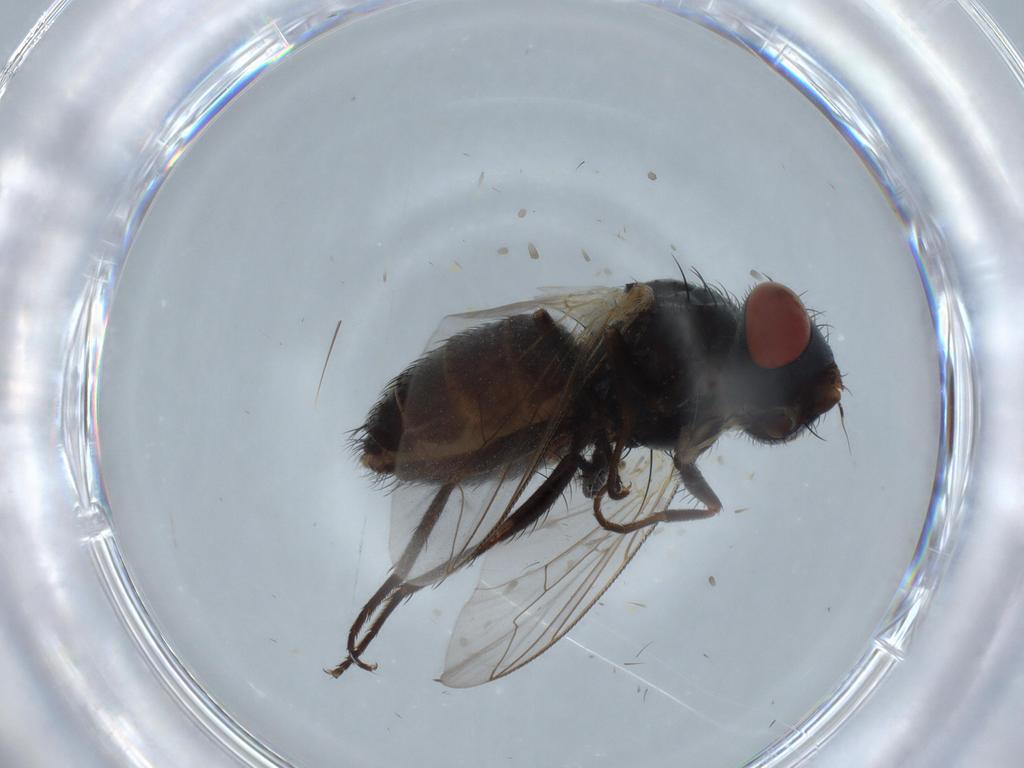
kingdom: Animalia
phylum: Arthropoda
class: Insecta
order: Diptera
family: Sarcophagidae
